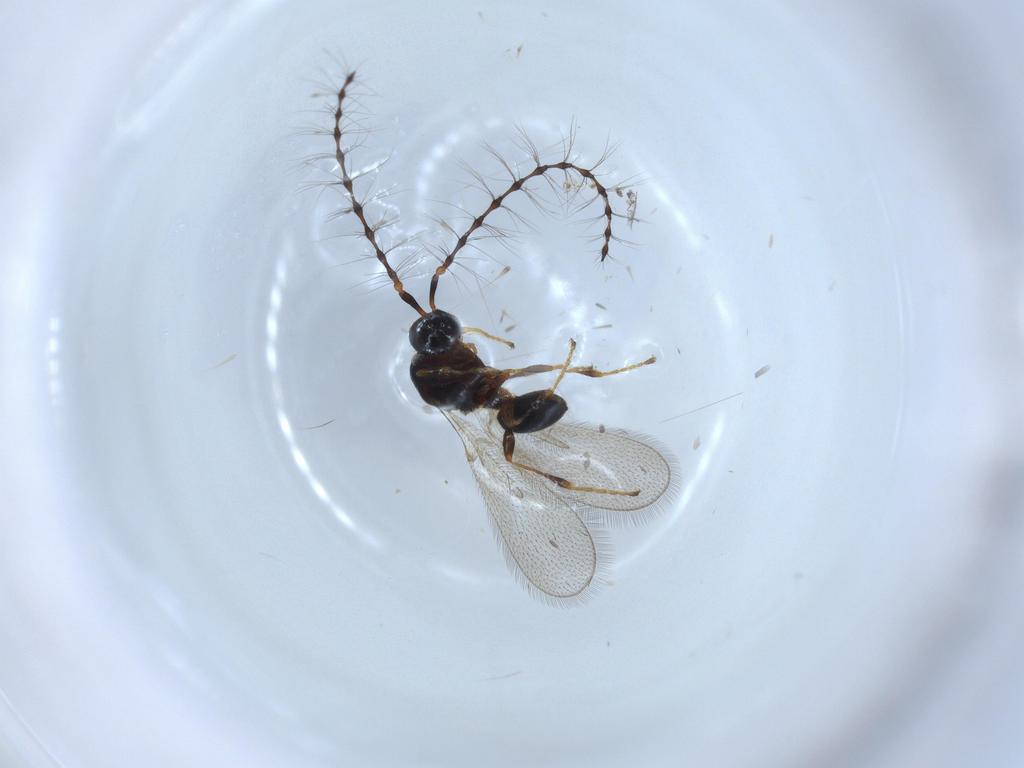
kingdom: Animalia
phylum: Arthropoda
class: Insecta
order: Hymenoptera
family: Diapriidae
